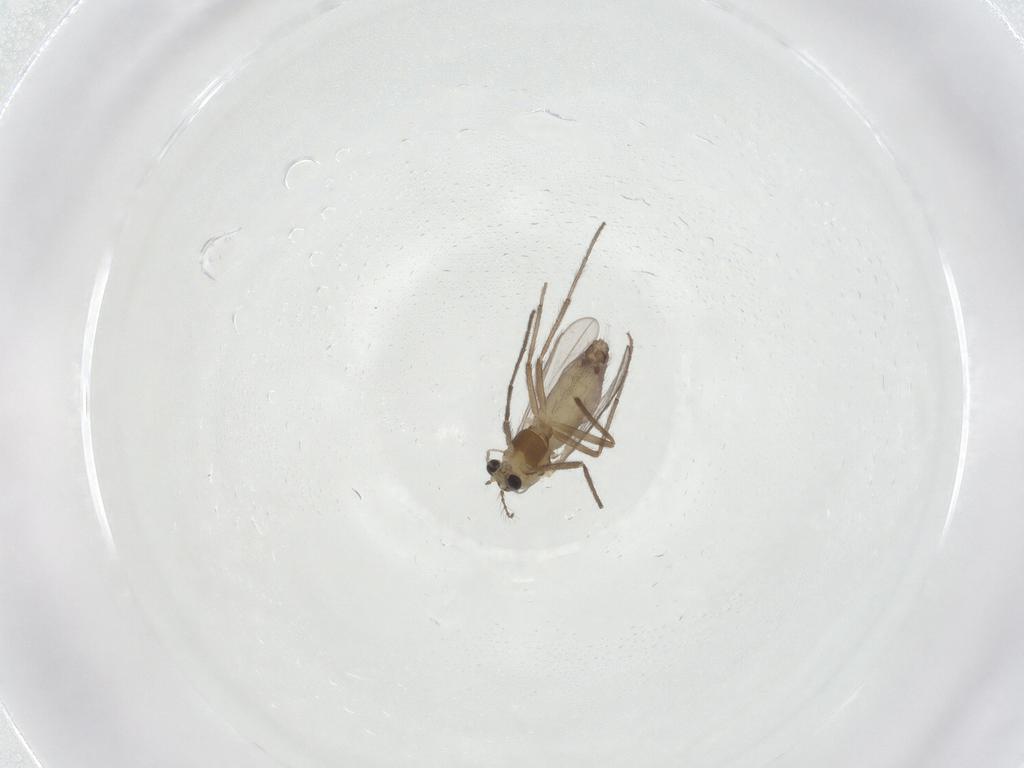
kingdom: Animalia
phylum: Arthropoda
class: Insecta
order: Diptera
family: Chironomidae
